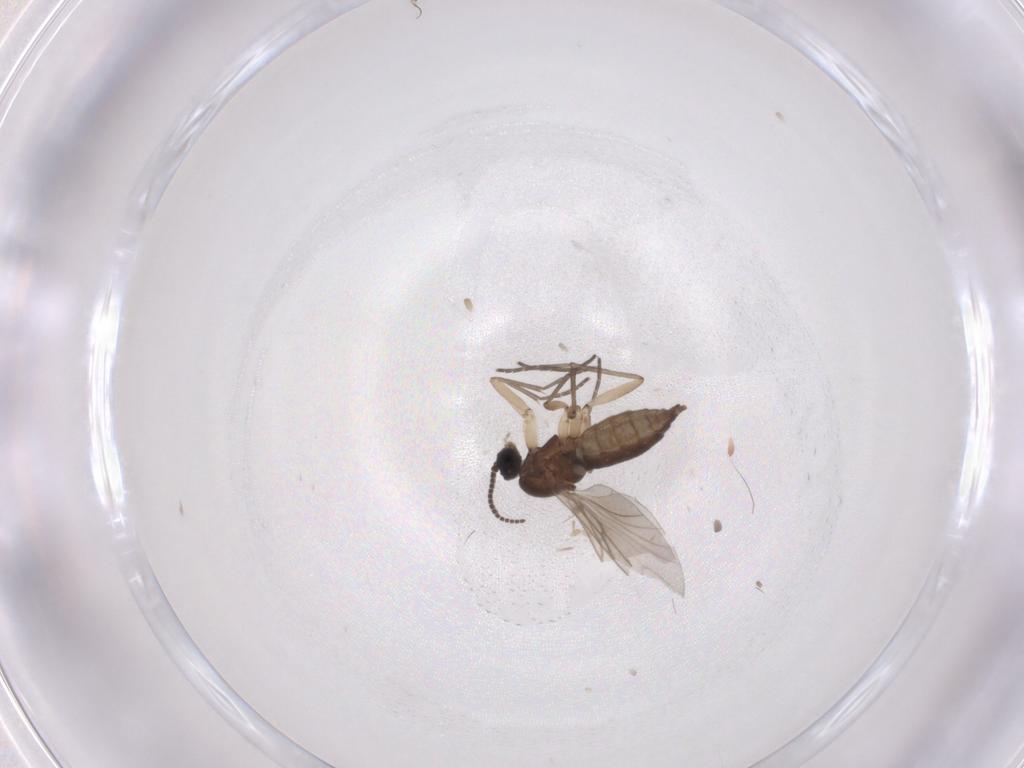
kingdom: Animalia
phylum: Arthropoda
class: Insecta
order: Diptera
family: Sciaridae
